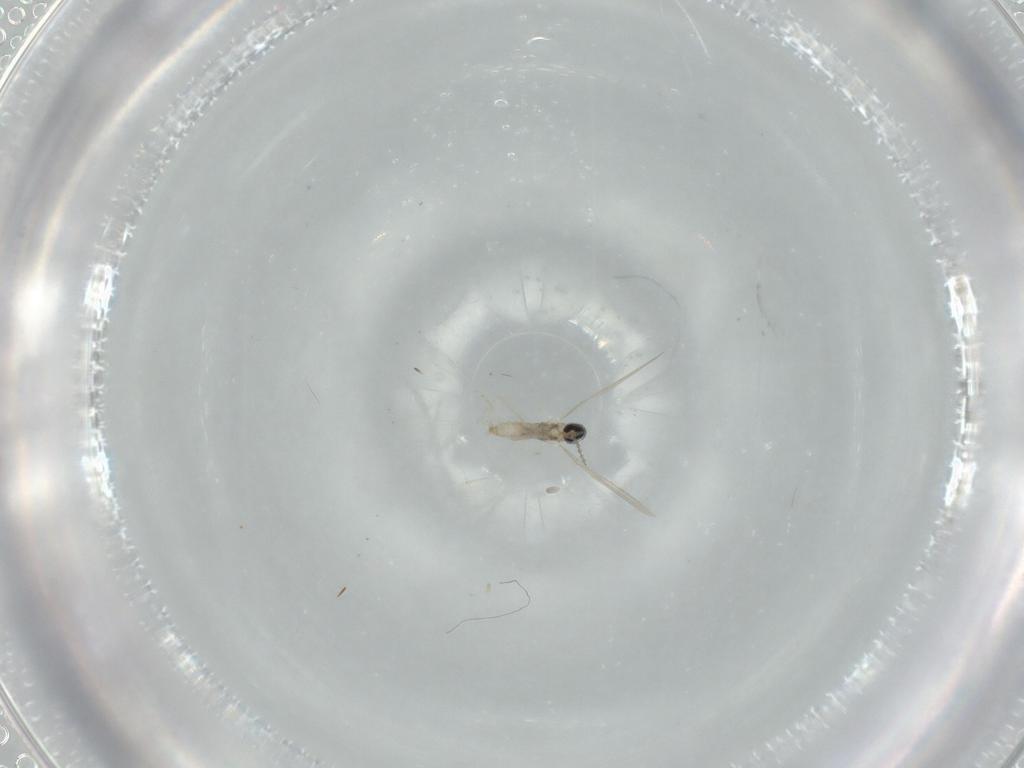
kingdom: Animalia
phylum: Arthropoda
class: Insecta
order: Diptera
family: Cecidomyiidae
